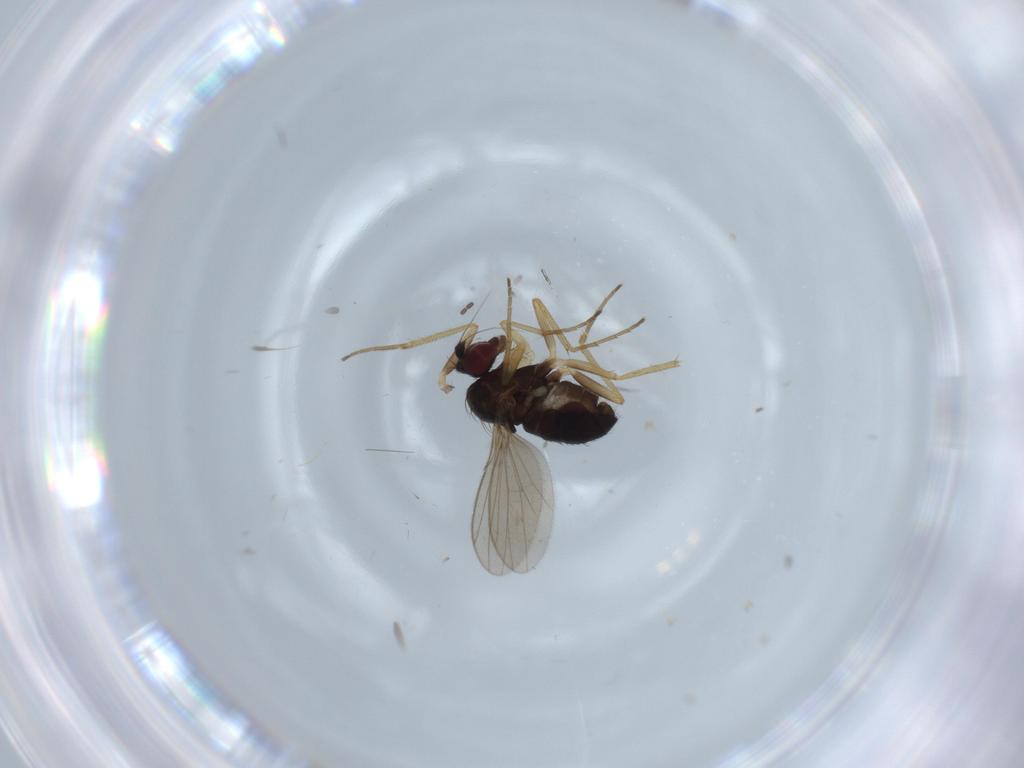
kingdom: Animalia
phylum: Arthropoda
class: Insecta
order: Diptera
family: Dolichopodidae
